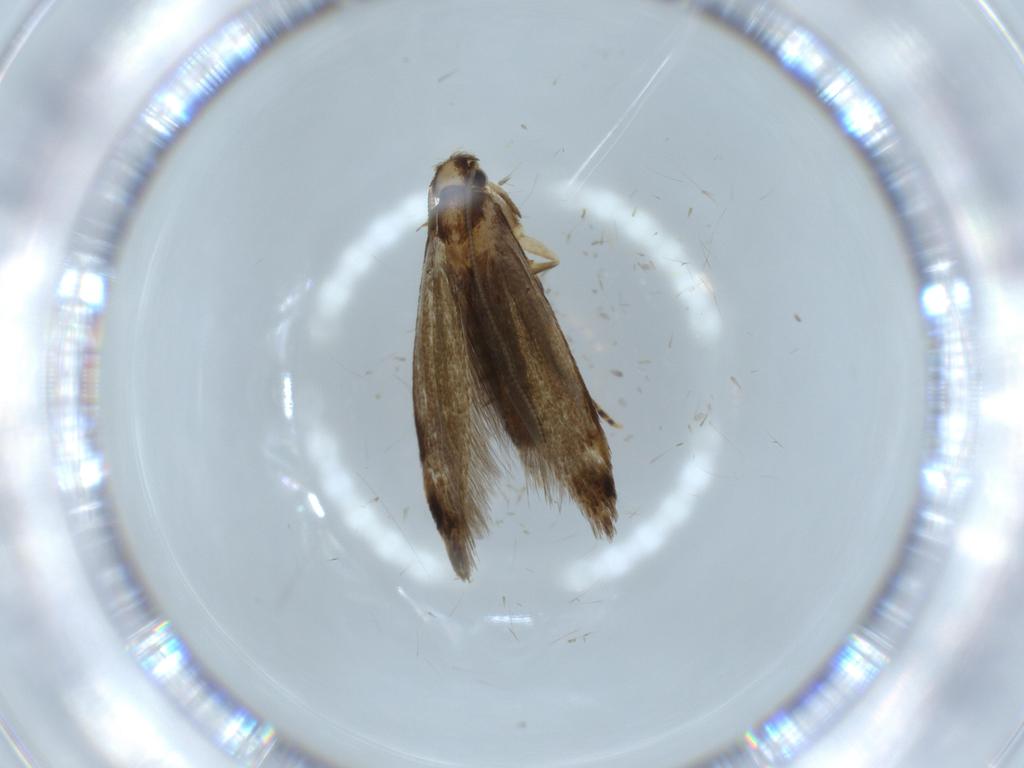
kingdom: Animalia
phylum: Arthropoda
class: Insecta
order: Lepidoptera
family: Tineidae
